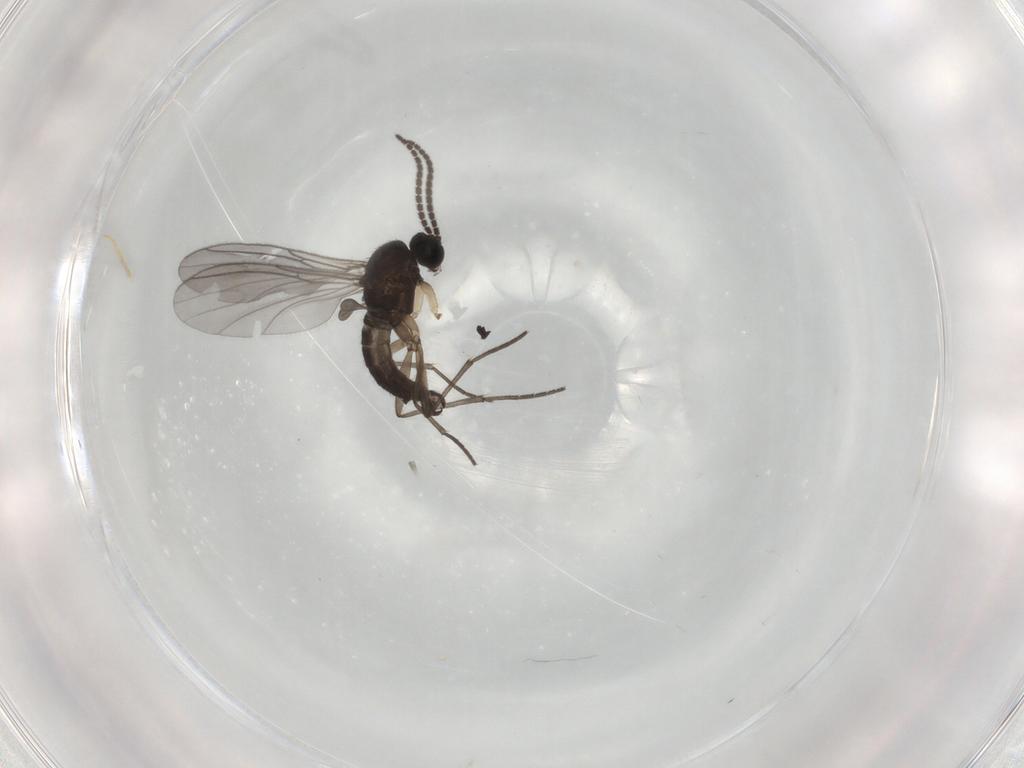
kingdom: Animalia
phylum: Arthropoda
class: Insecta
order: Diptera
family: Sciaridae
